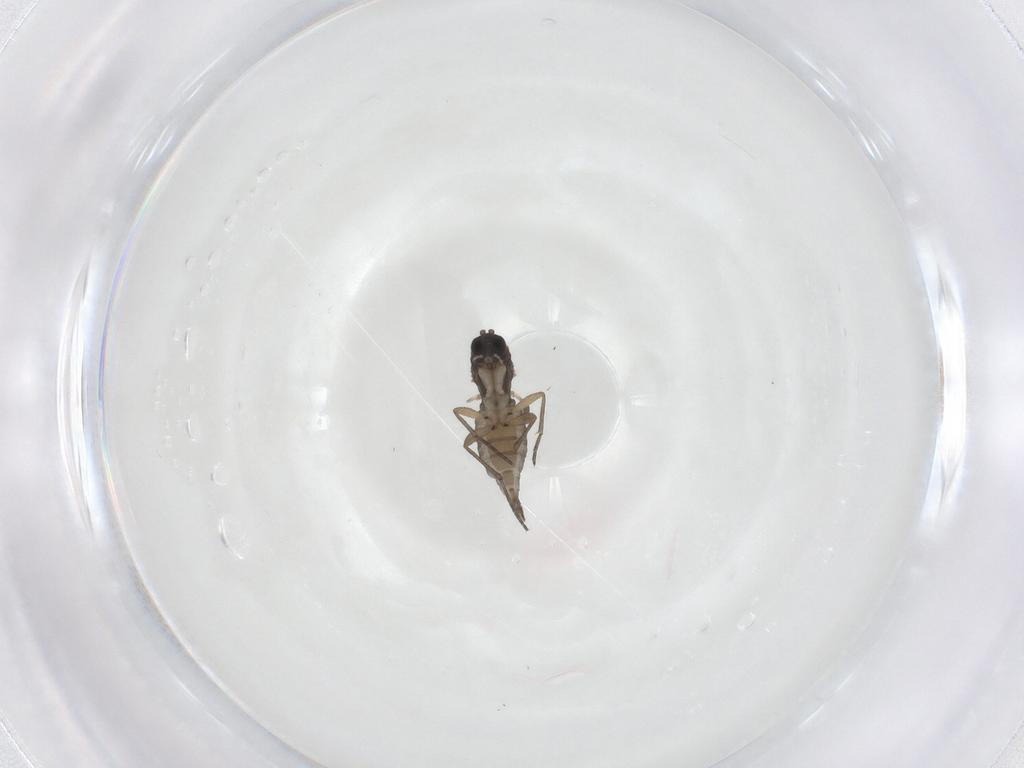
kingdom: Animalia
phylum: Arthropoda
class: Insecta
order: Diptera
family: Sciaridae
